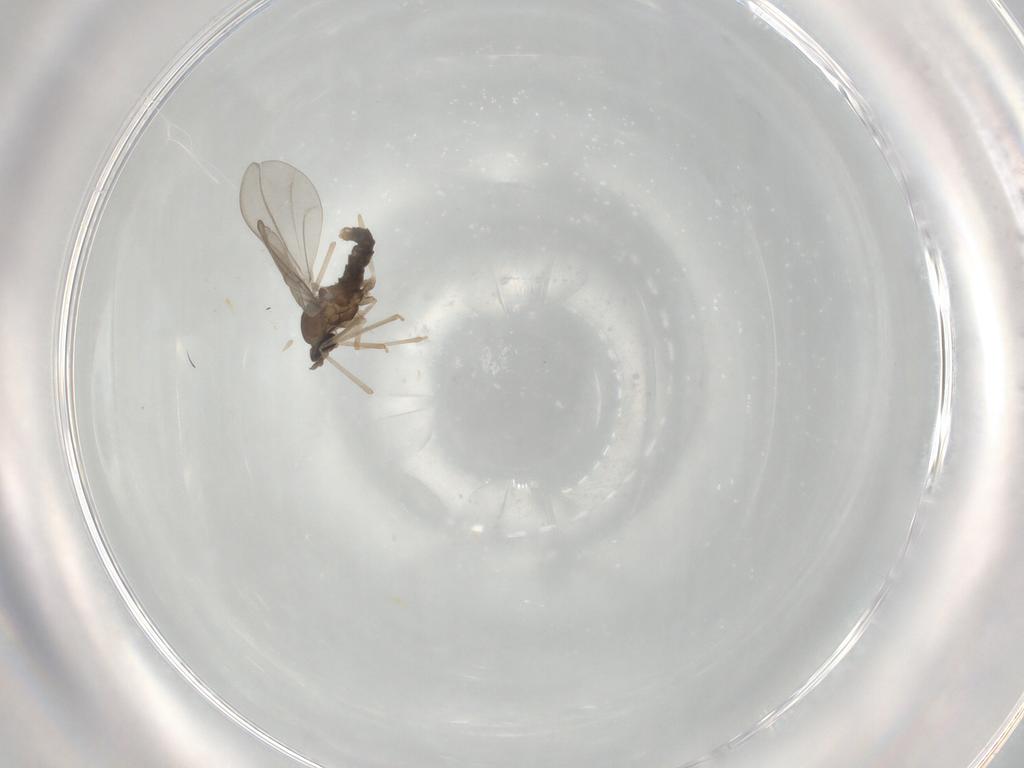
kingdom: Animalia
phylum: Arthropoda
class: Insecta
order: Diptera
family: Cecidomyiidae
